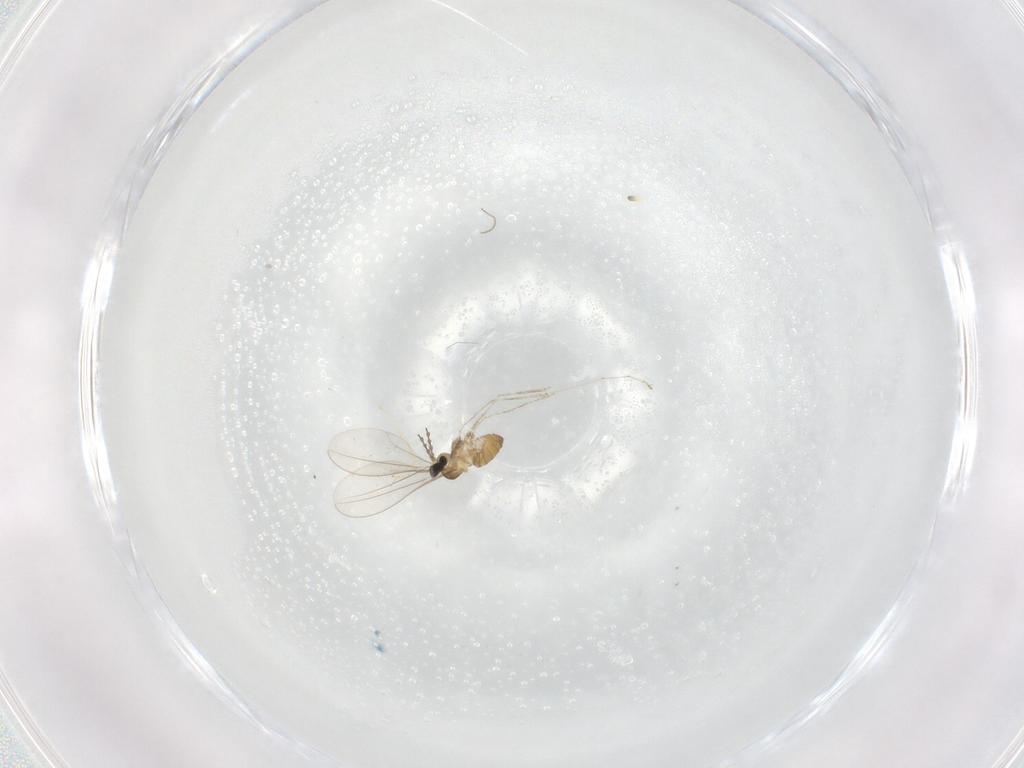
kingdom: Animalia
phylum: Arthropoda
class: Insecta
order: Diptera
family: Cecidomyiidae
